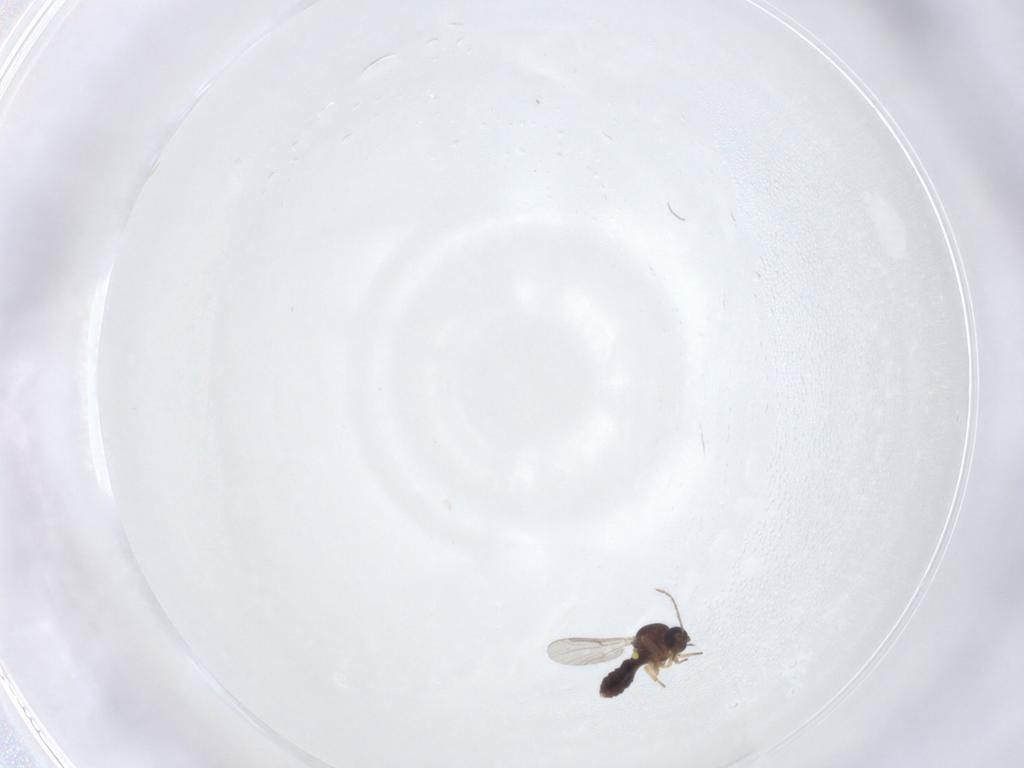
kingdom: Animalia
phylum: Arthropoda
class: Insecta
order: Diptera
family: Ceratopogonidae
